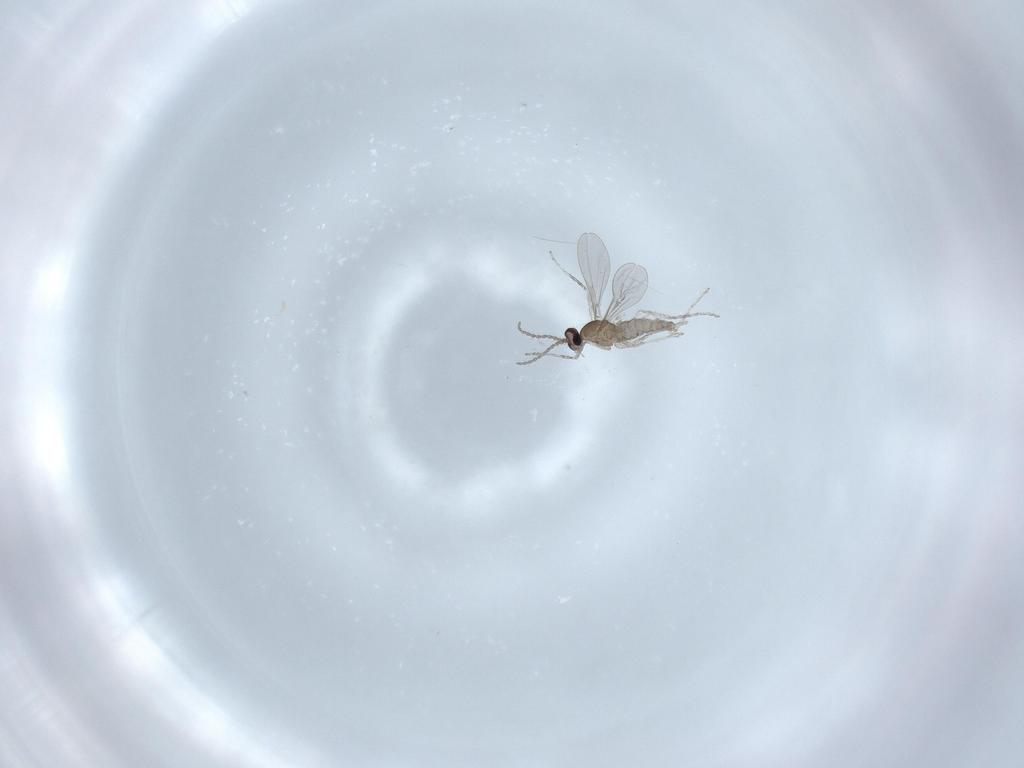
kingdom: Animalia
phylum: Arthropoda
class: Insecta
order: Diptera
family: Cecidomyiidae
